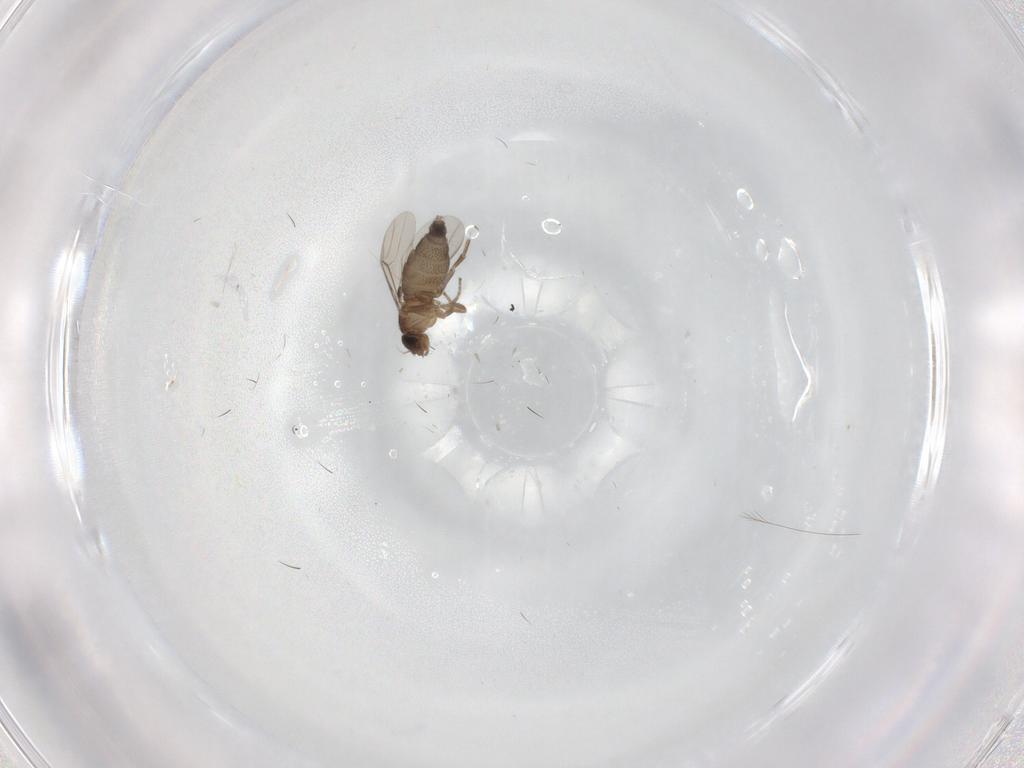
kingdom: Animalia
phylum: Arthropoda
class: Insecta
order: Diptera
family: Phoridae
